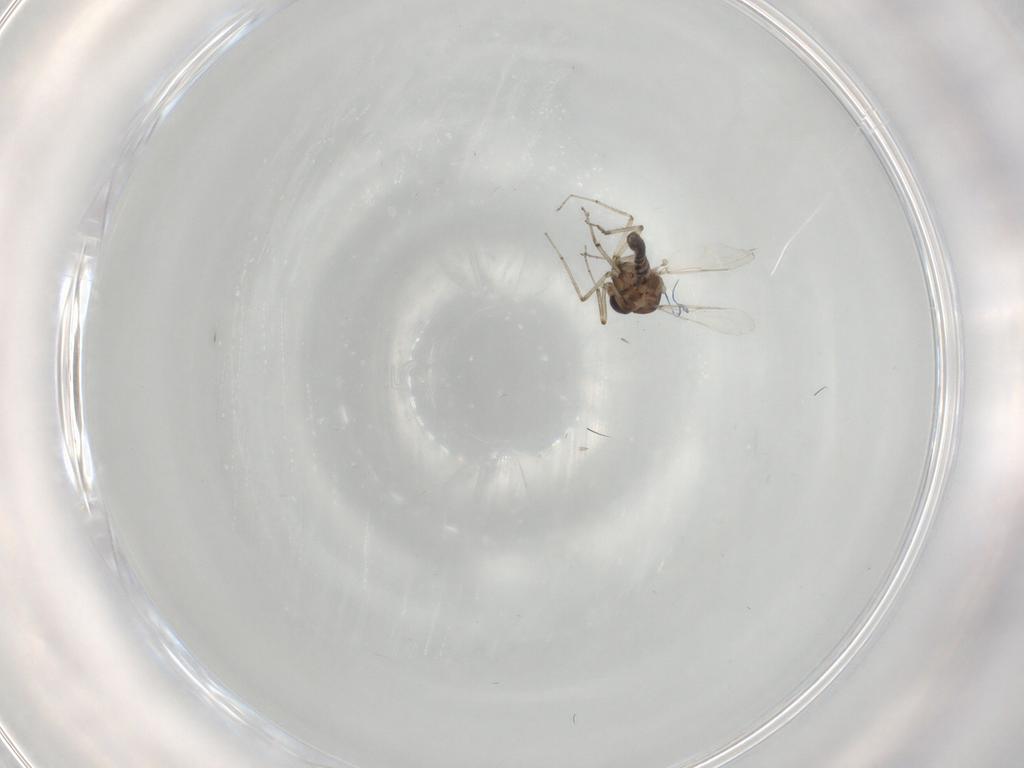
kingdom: Animalia
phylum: Arthropoda
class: Insecta
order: Diptera
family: Ceratopogonidae
